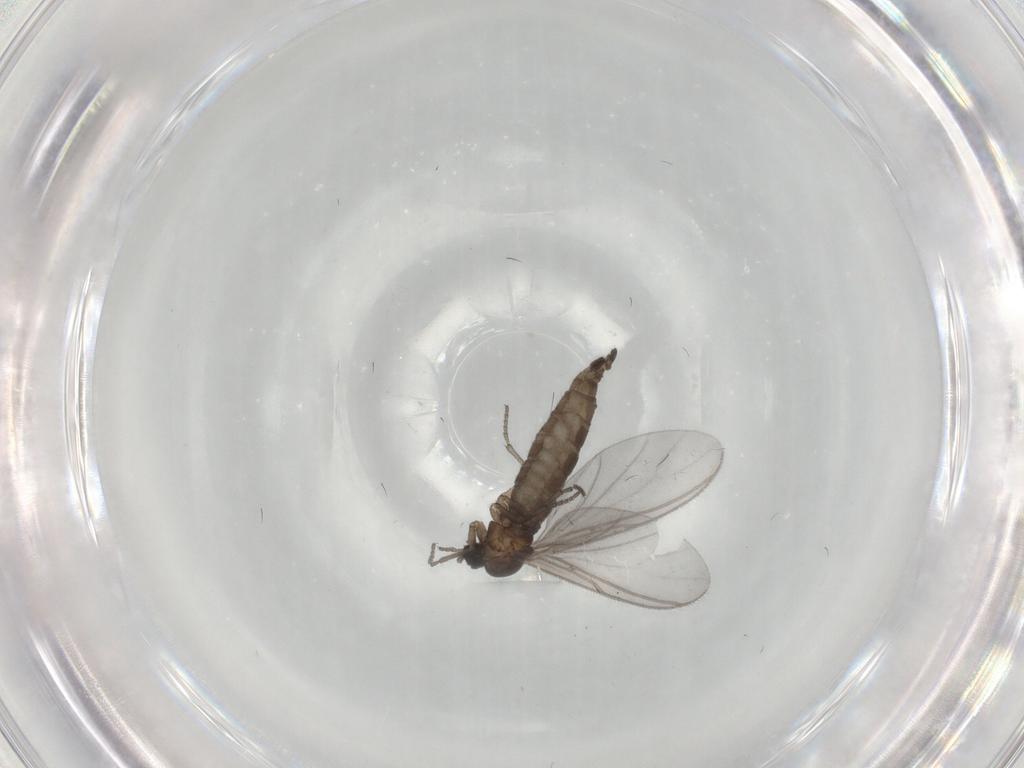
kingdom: Animalia
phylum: Arthropoda
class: Insecta
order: Diptera
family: Sciaridae
